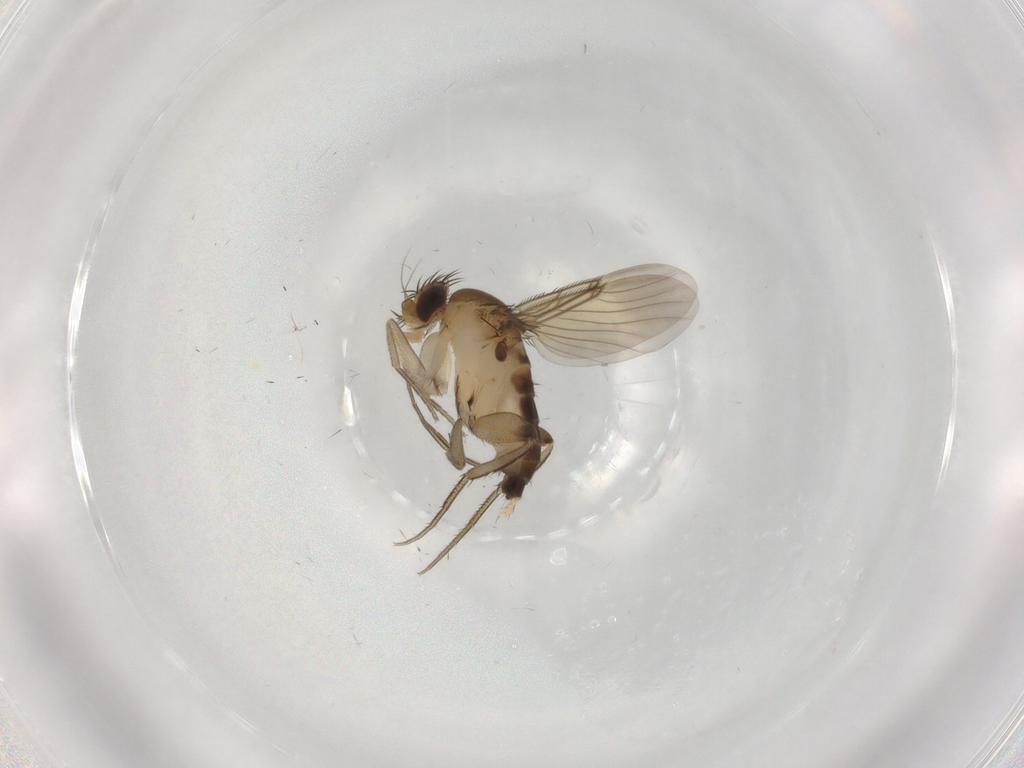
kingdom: Animalia
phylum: Arthropoda
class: Insecta
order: Diptera
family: Phoridae
